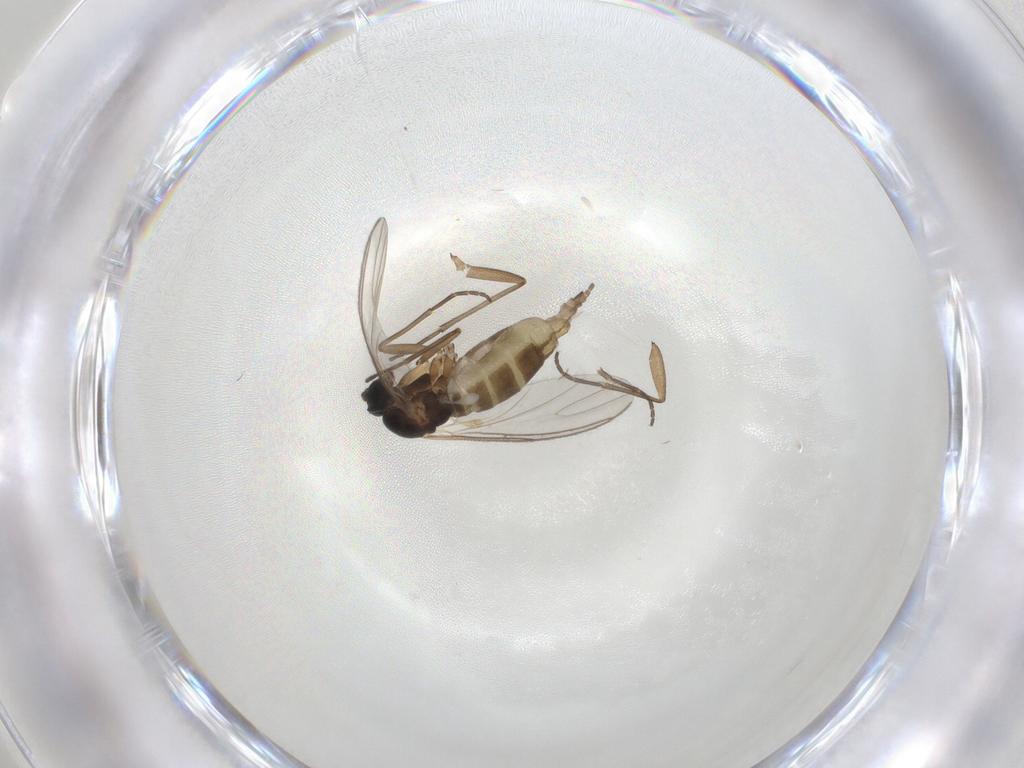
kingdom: Animalia
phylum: Arthropoda
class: Insecta
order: Diptera
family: Sciaridae
